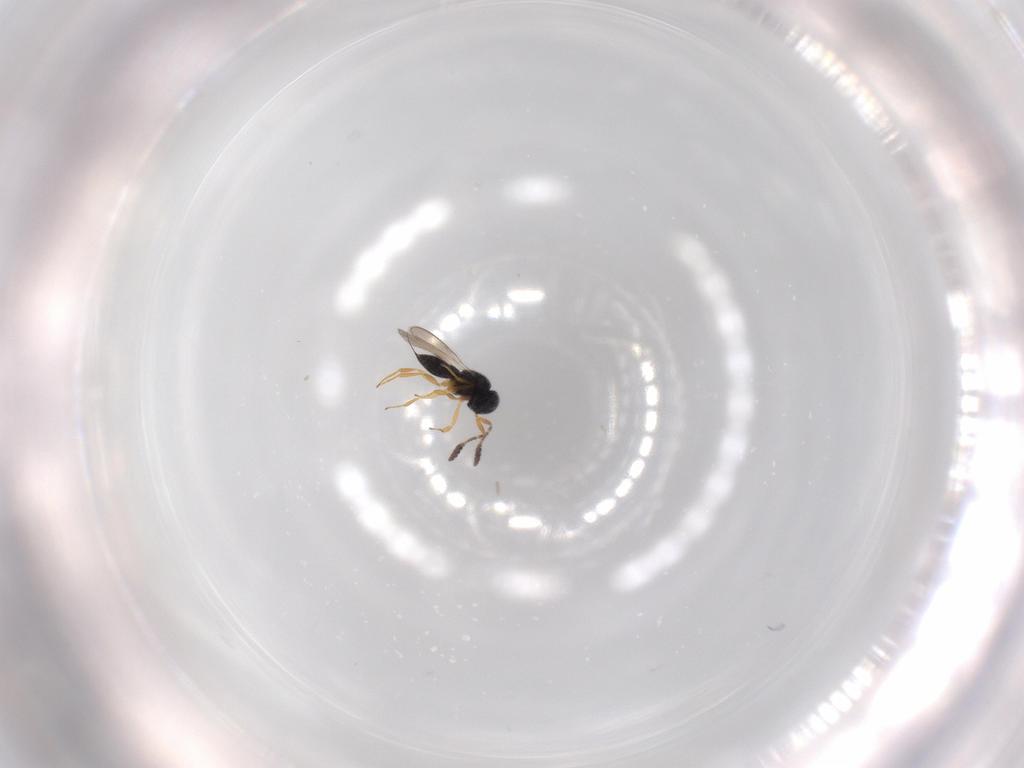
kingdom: Animalia
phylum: Arthropoda
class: Insecta
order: Hymenoptera
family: Scelionidae
